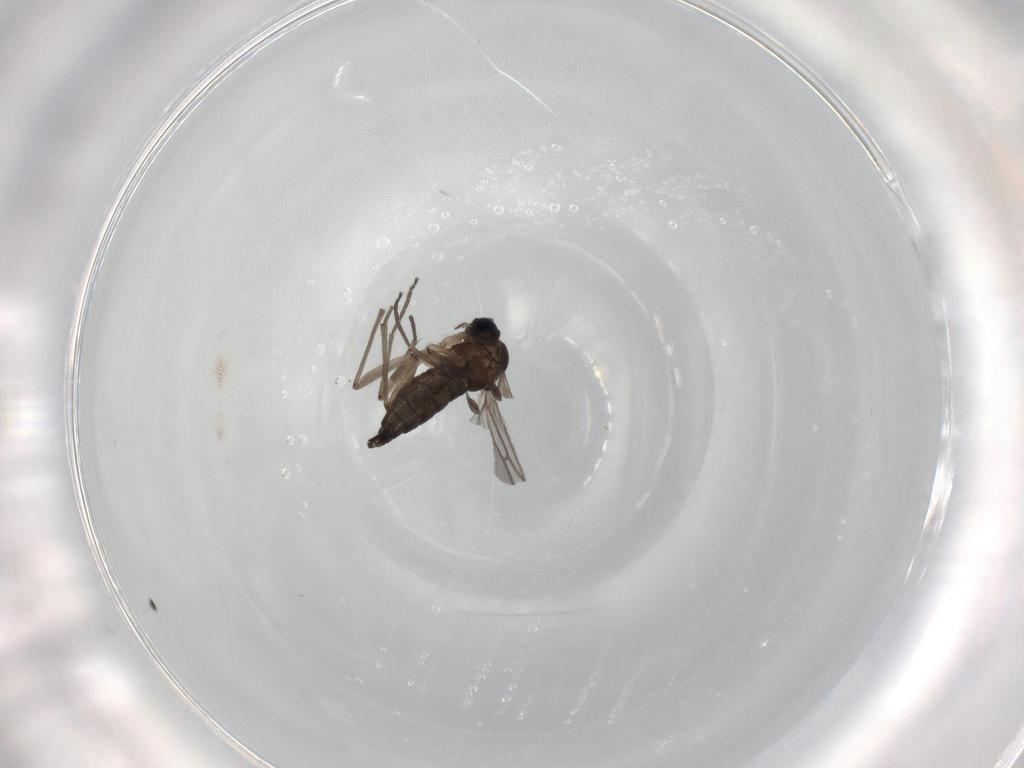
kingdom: Animalia
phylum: Arthropoda
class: Insecta
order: Diptera
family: Sciaridae
